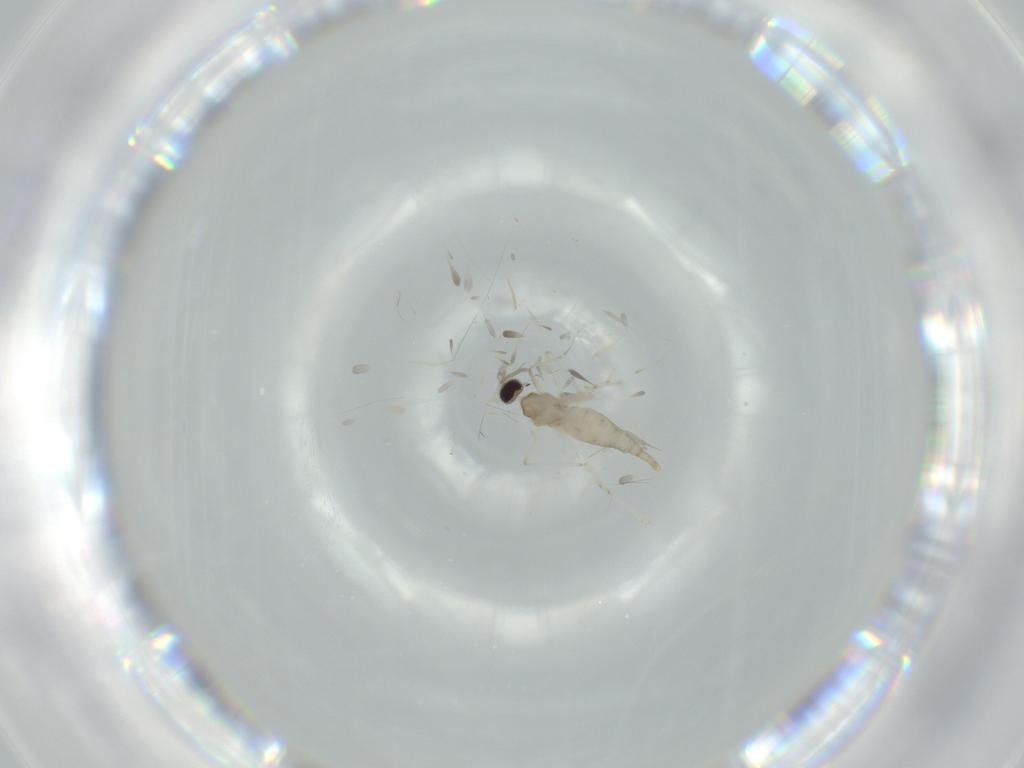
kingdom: Animalia
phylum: Arthropoda
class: Insecta
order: Diptera
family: Cecidomyiidae
